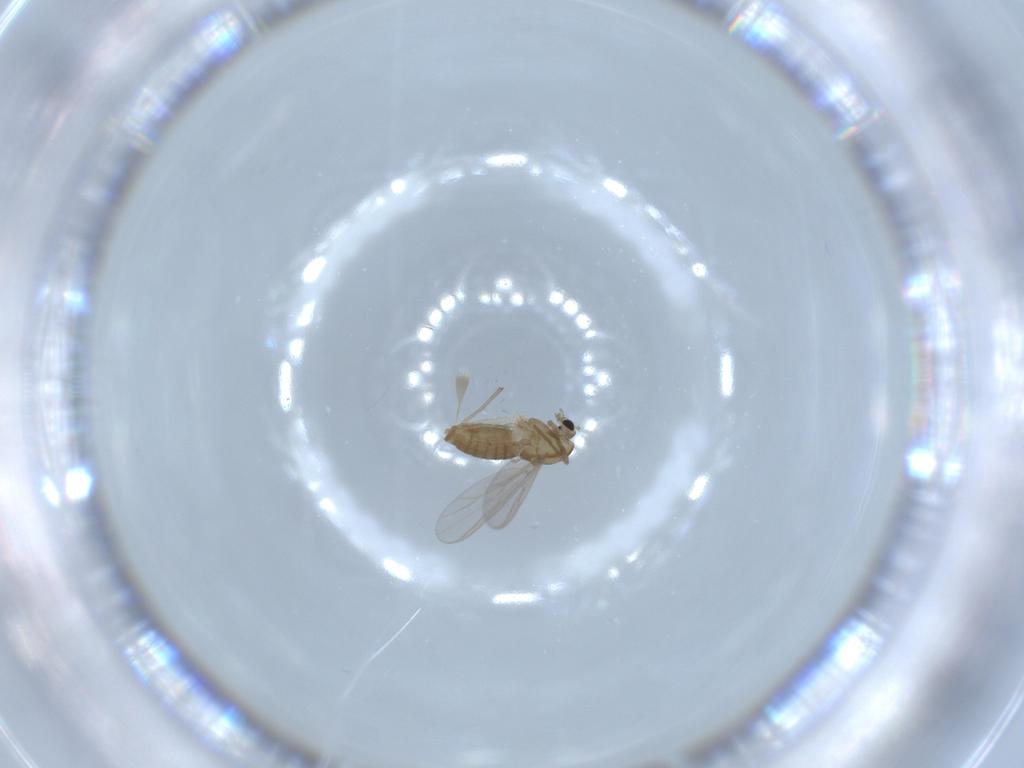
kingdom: Animalia
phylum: Arthropoda
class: Insecta
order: Diptera
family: Chironomidae
